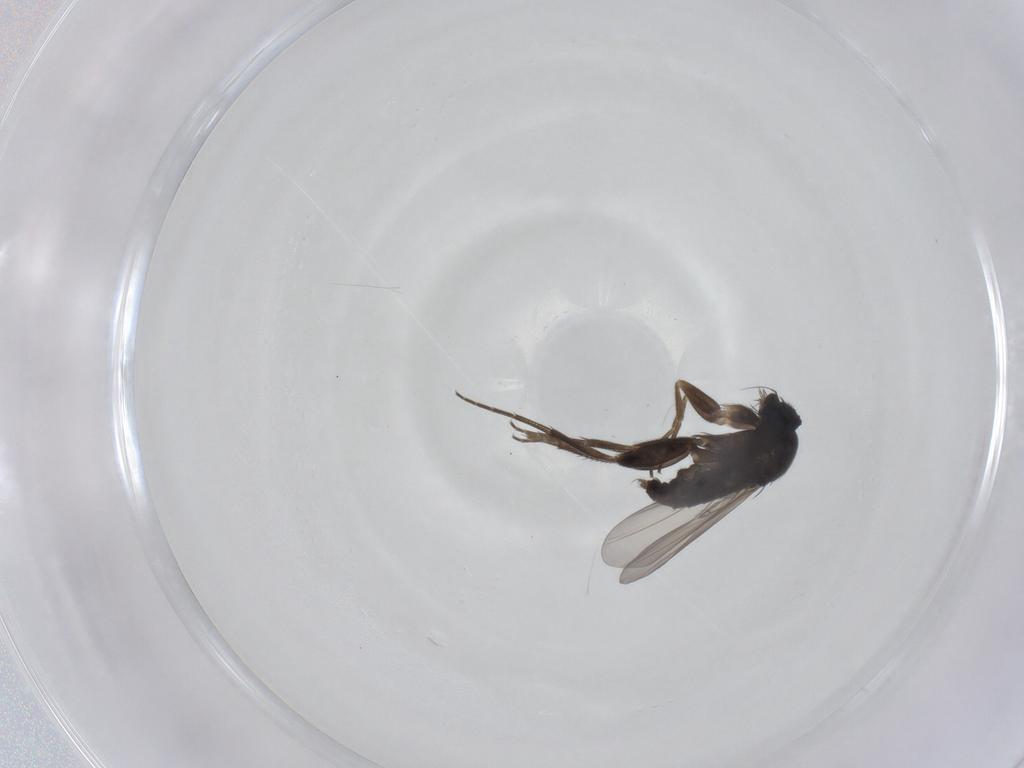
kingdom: Animalia
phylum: Arthropoda
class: Insecta
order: Diptera
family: Phoridae
